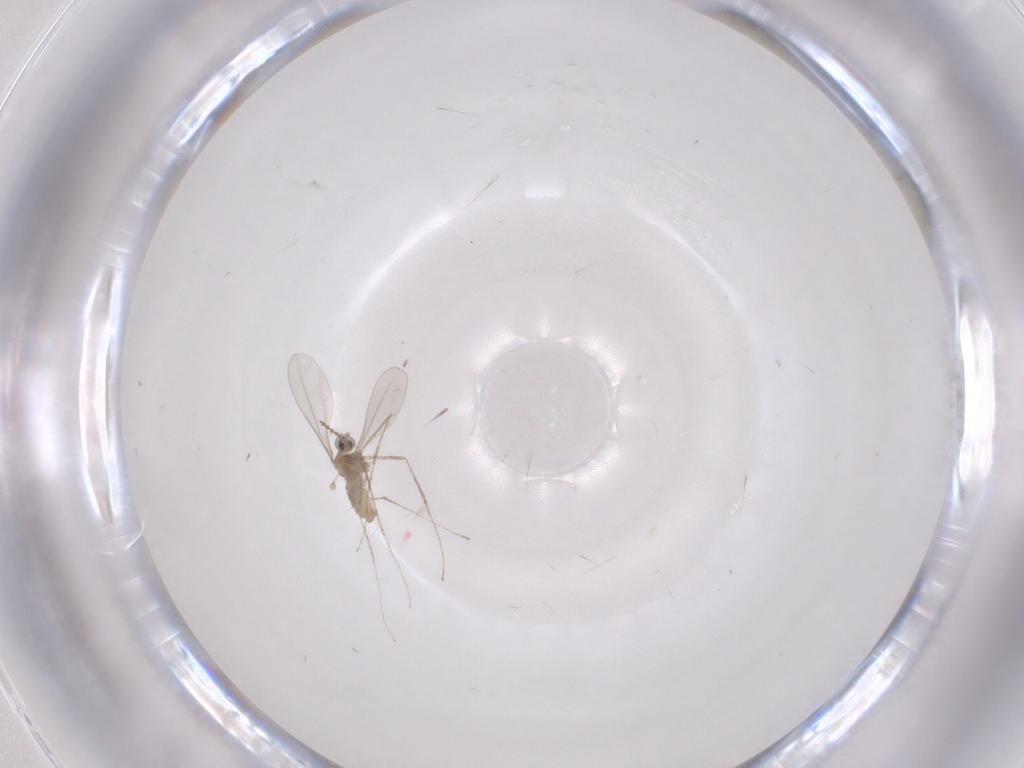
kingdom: Animalia
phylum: Arthropoda
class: Insecta
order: Diptera
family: Cecidomyiidae
